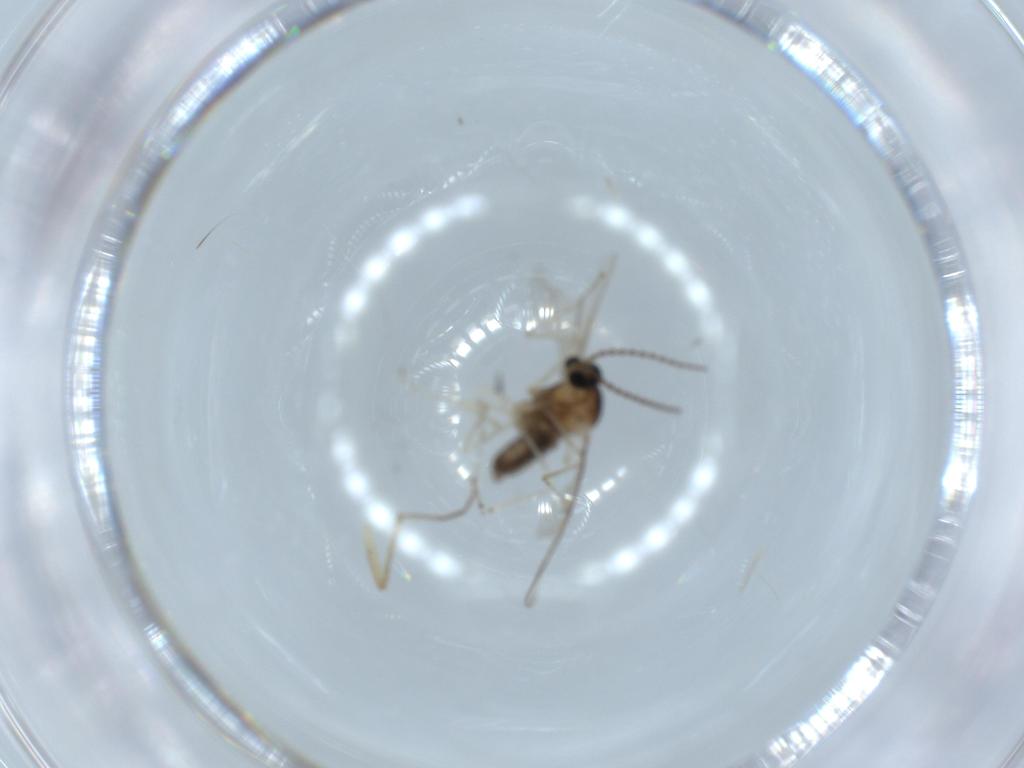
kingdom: Animalia
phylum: Arthropoda
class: Insecta
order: Diptera
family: Cecidomyiidae
